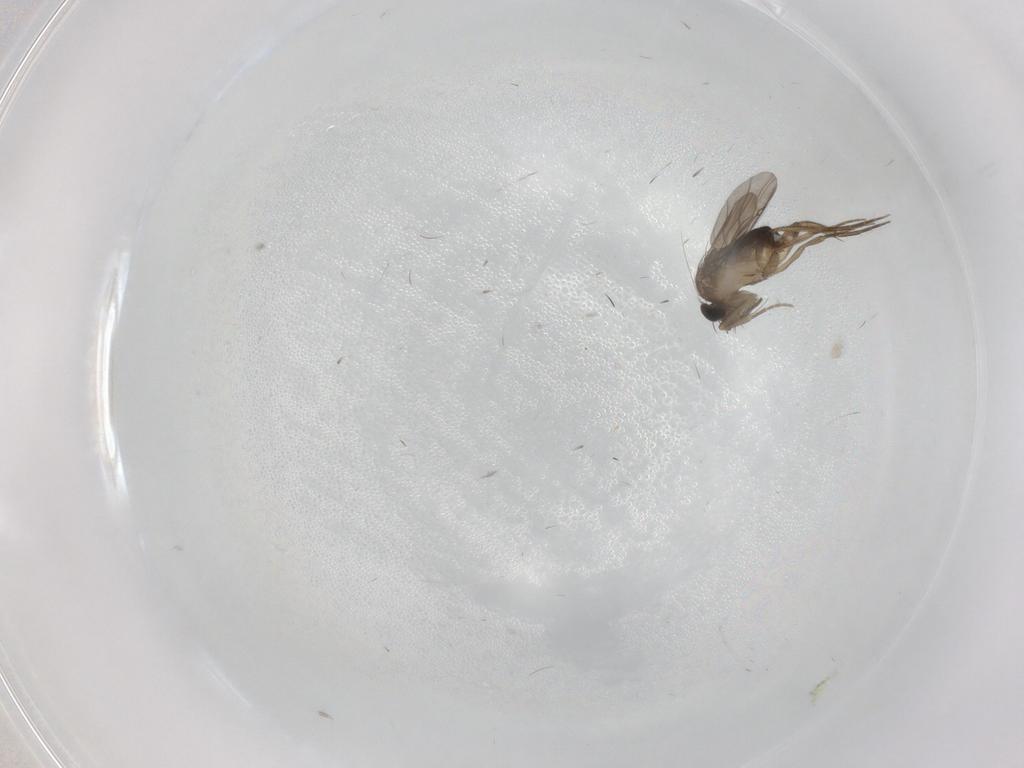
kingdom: Animalia
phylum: Arthropoda
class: Insecta
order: Diptera
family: Phoridae
